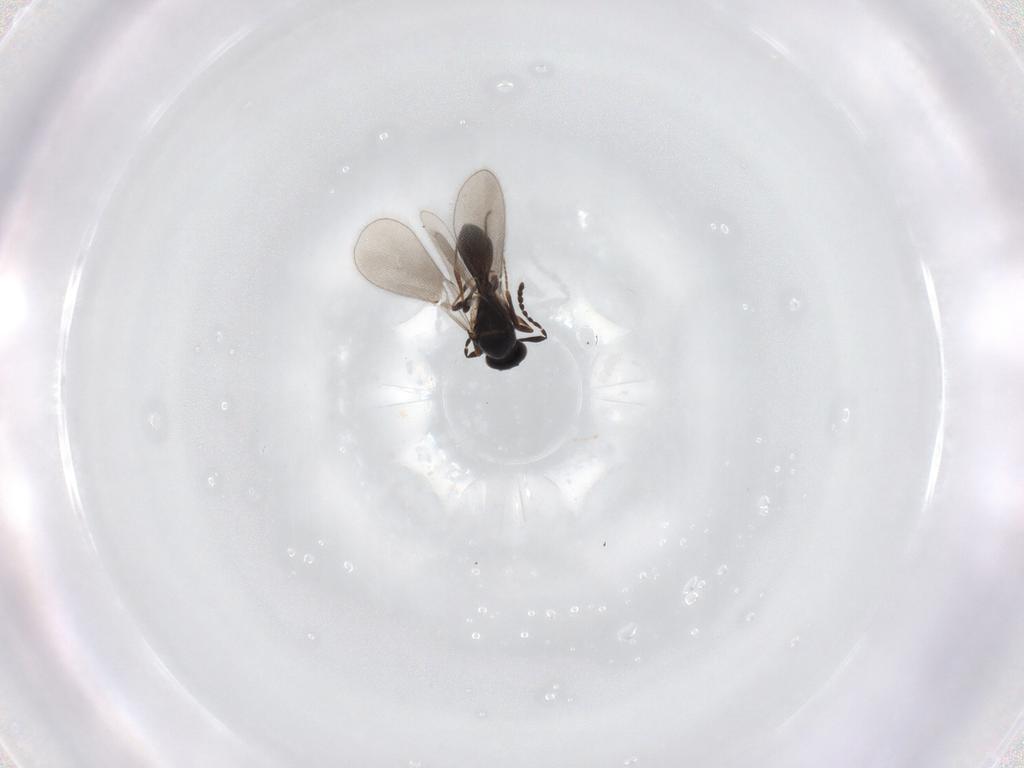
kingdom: Animalia
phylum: Arthropoda
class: Insecta
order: Hymenoptera
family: Platygastridae
